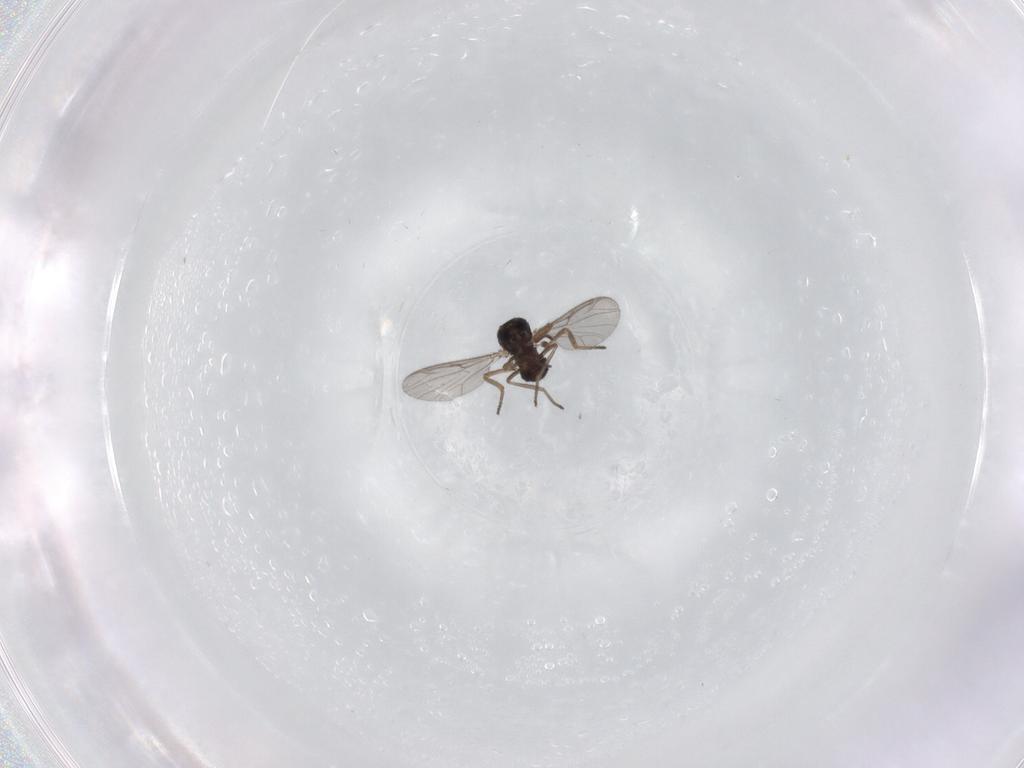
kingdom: Animalia
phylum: Arthropoda
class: Insecta
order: Diptera
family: Ceratopogonidae
